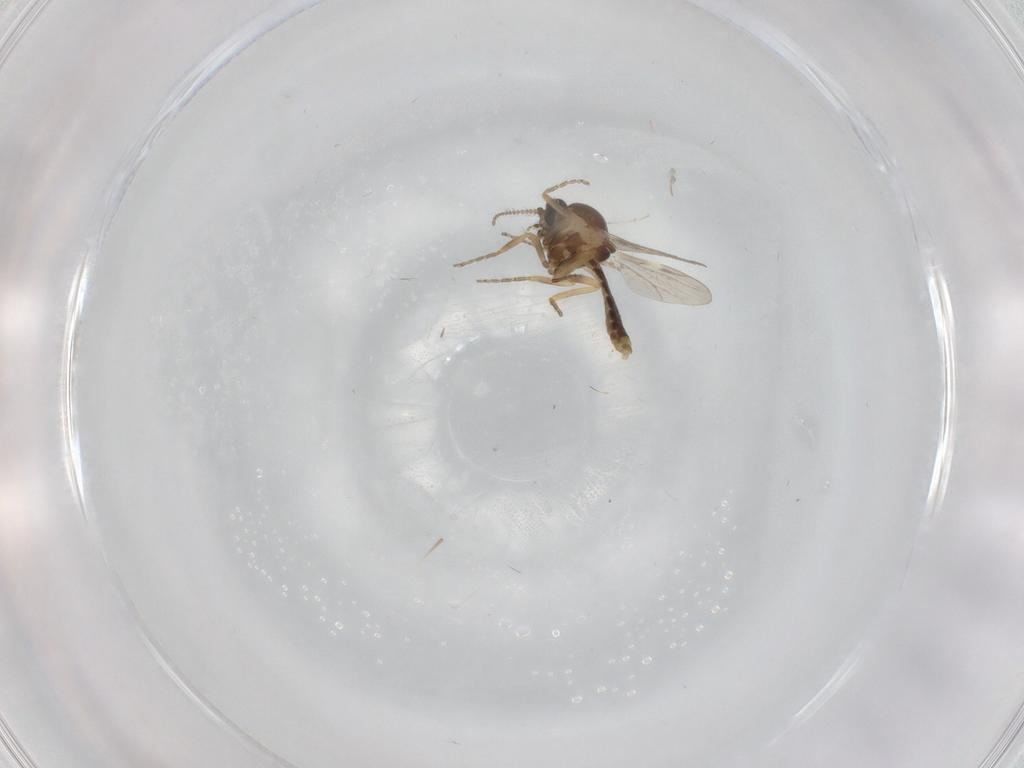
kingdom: Animalia
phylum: Arthropoda
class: Insecta
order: Diptera
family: Ceratopogonidae
